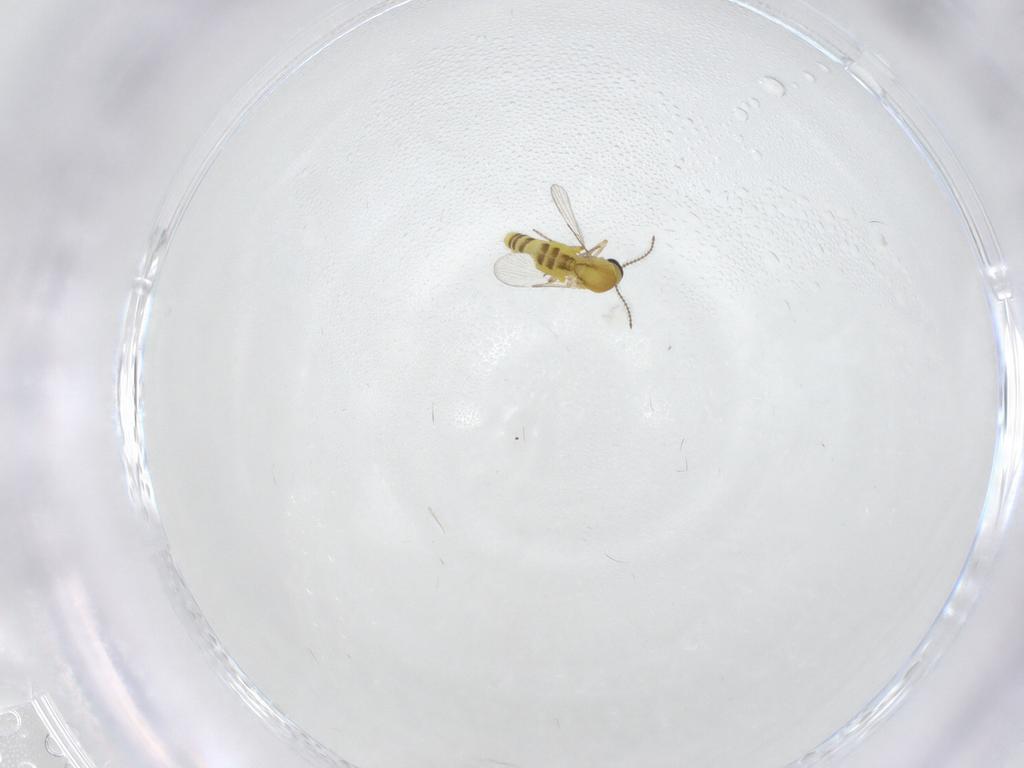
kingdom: Animalia
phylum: Arthropoda
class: Insecta
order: Diptera
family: Ceratopogonidae
